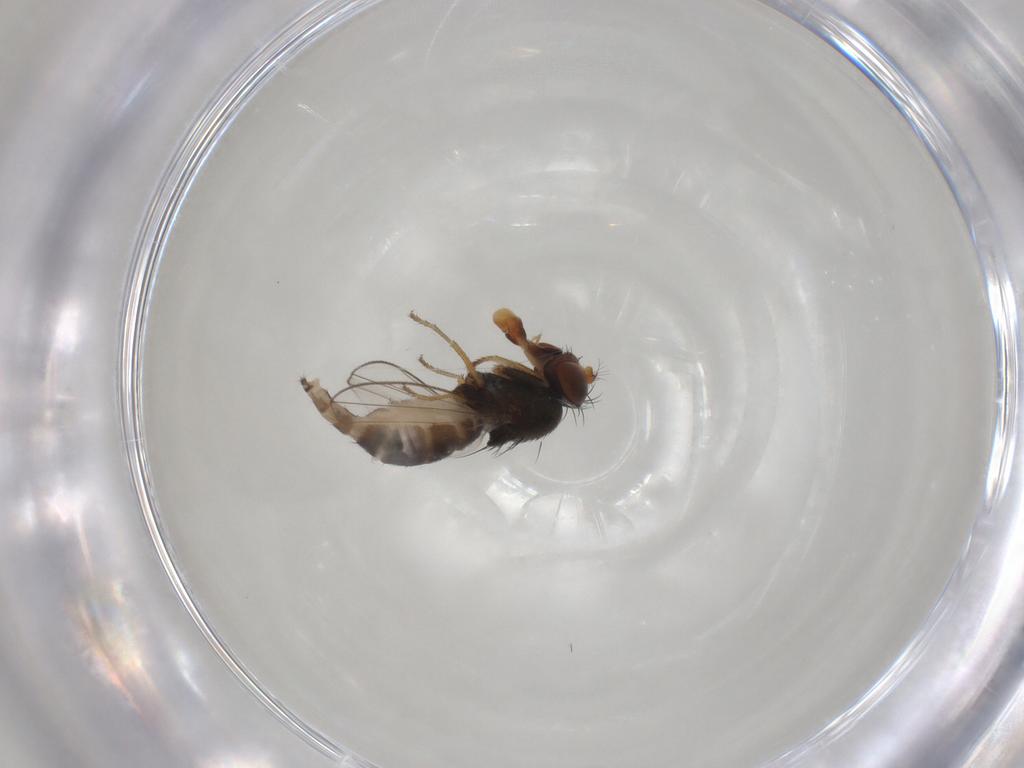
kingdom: Animalia
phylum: Arthropoda
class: Insecta
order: Diptera
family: Ephydridae
